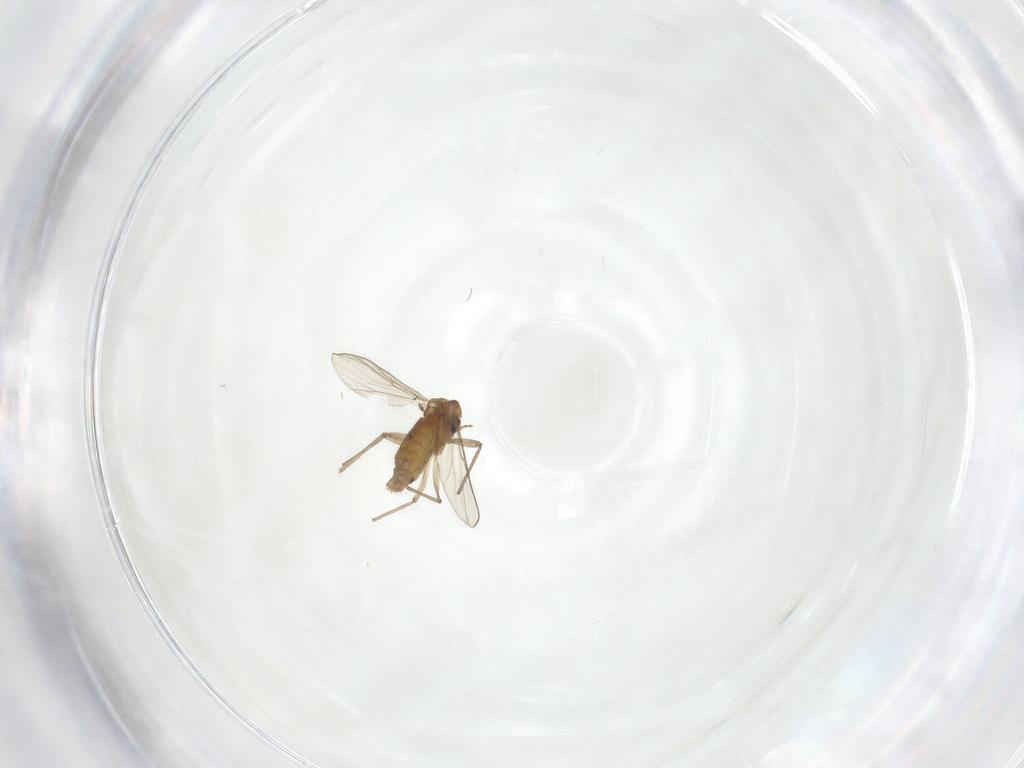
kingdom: Animalia
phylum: Arthropoda
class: Insecta
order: Diptera
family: Chironomidae
